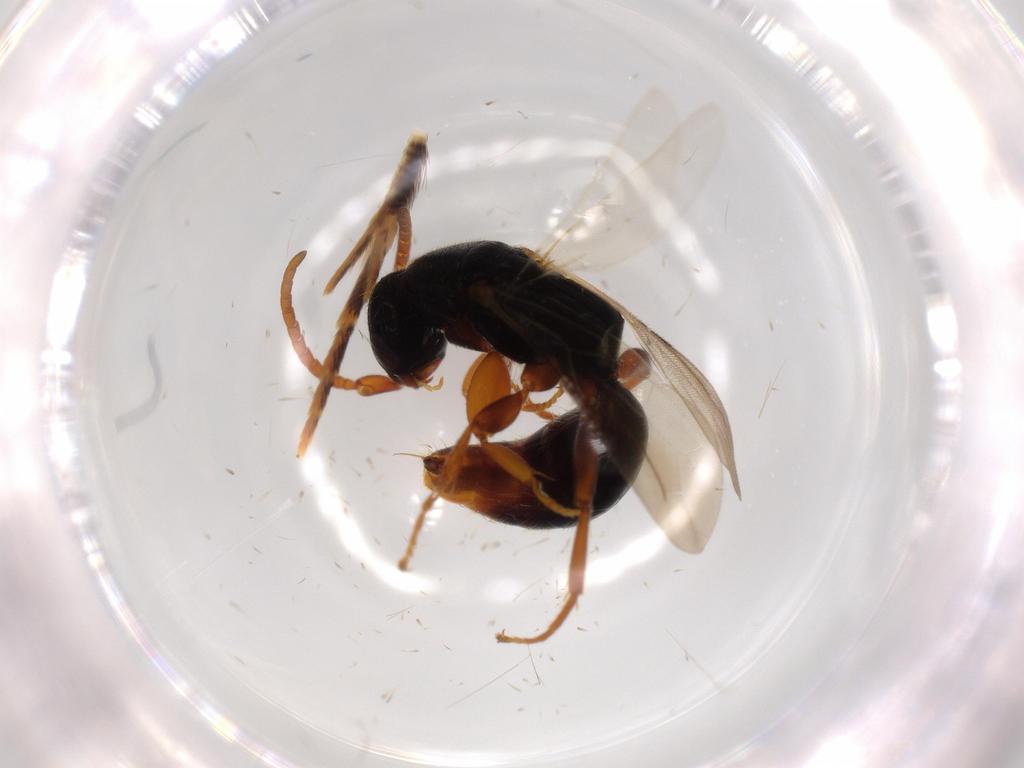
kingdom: Animalia
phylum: Arthropoda
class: Insecta
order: Hymenoptera
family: Bethylidae
